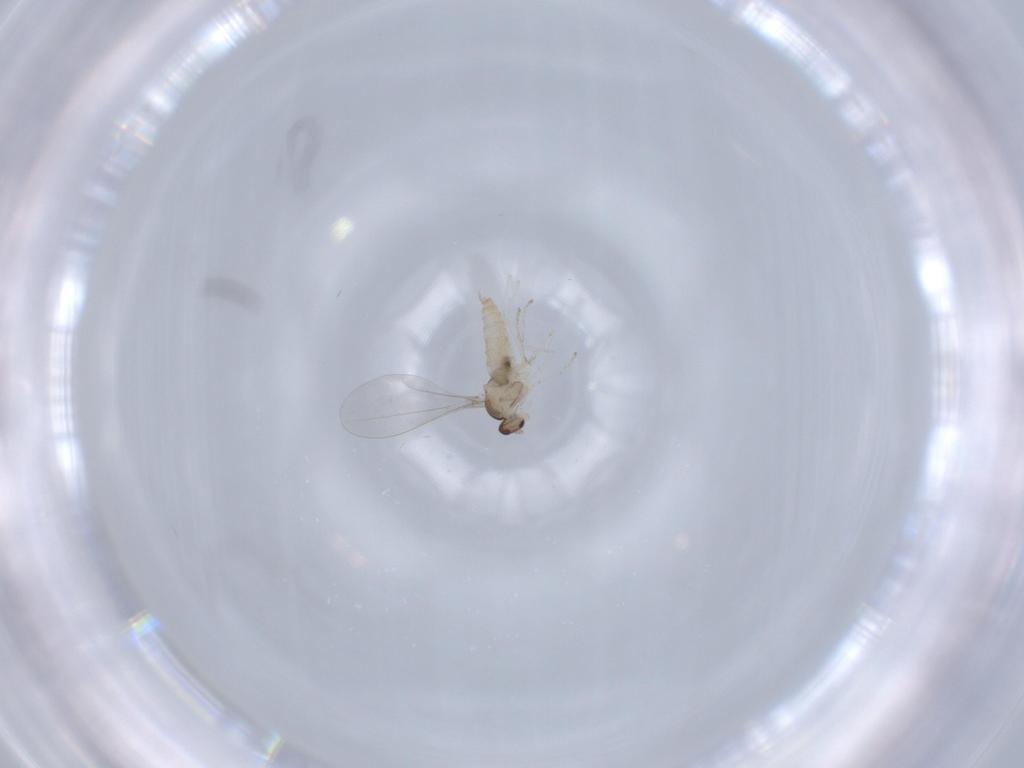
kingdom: Animalia
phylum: Arthropoda
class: Insecta
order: Diptera
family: Cecidomyiidae
